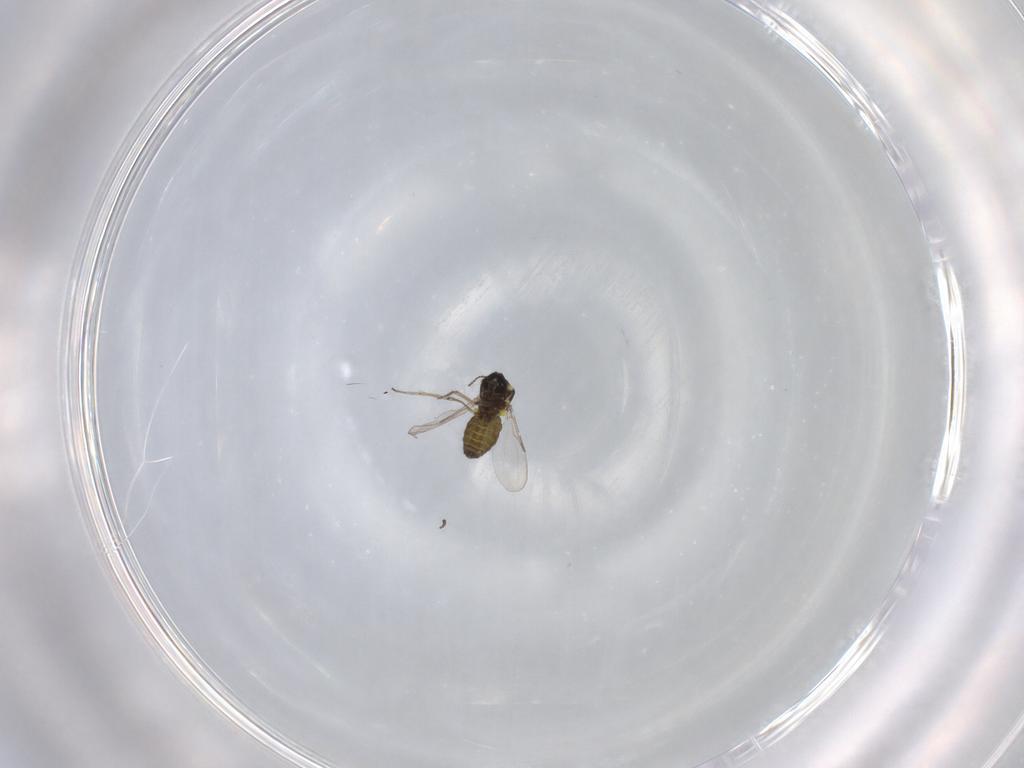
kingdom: Animalia
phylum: Arthropoda
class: Insecta
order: Diptera
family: Ceratopogonidae
